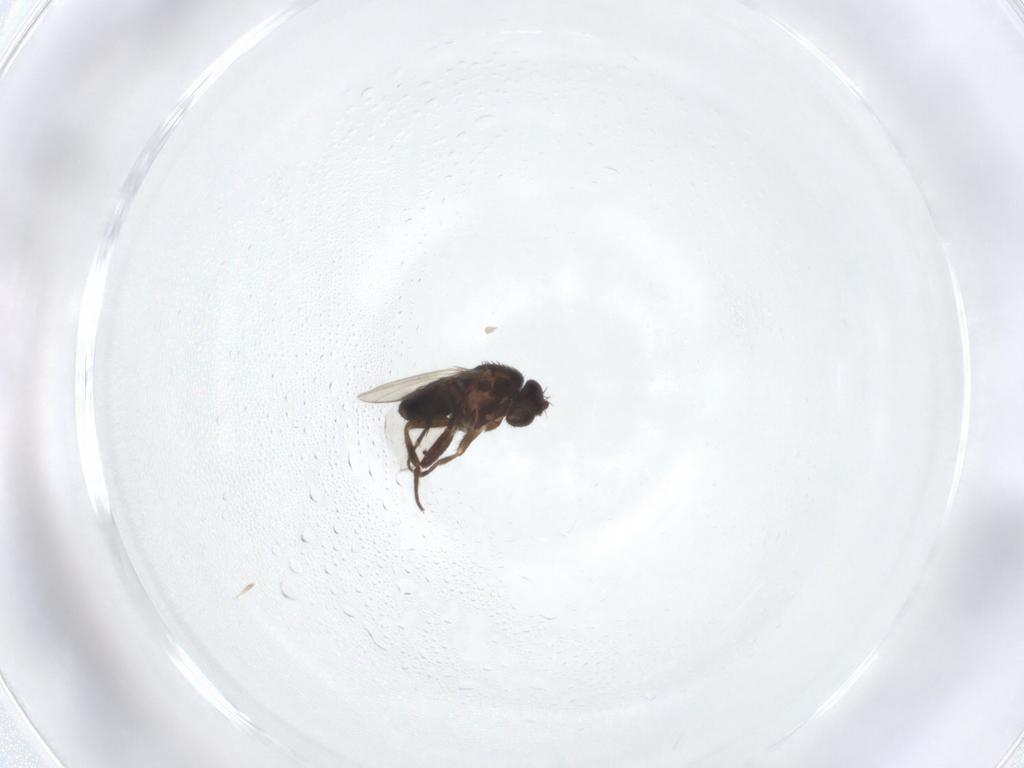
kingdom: Animalia
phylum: Arthropoda
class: Insecta
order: Diptera
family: Sphaeroceridae
